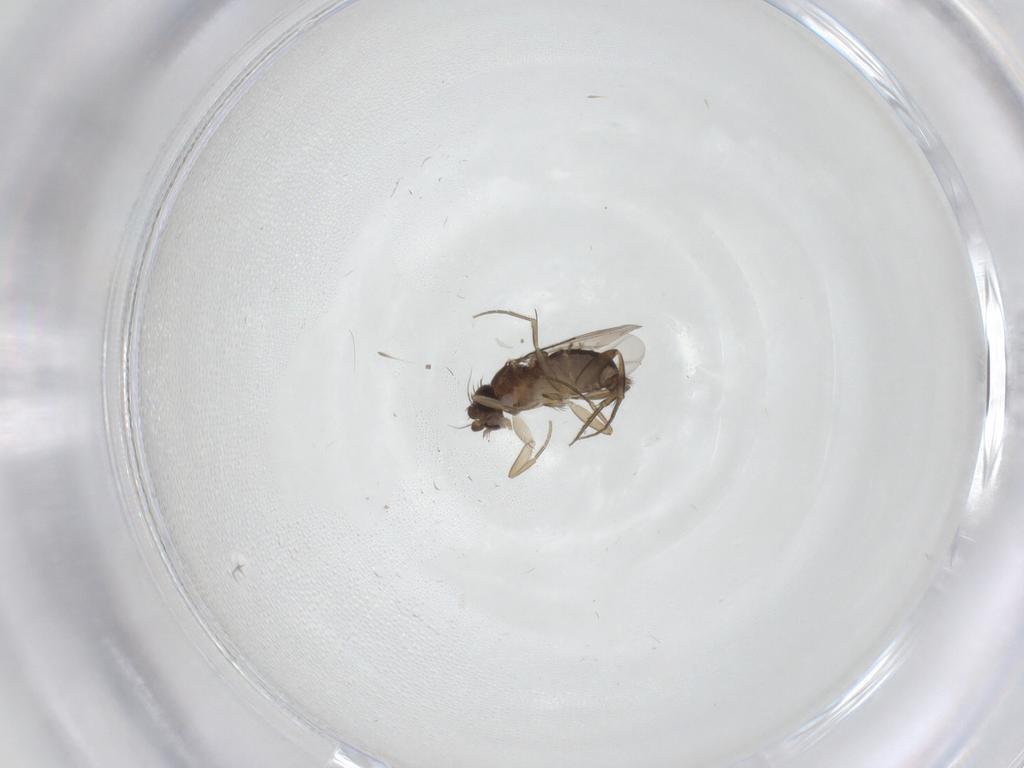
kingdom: Animalia
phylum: Arthropoda
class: Insecta
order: Diptera
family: Phoridae
